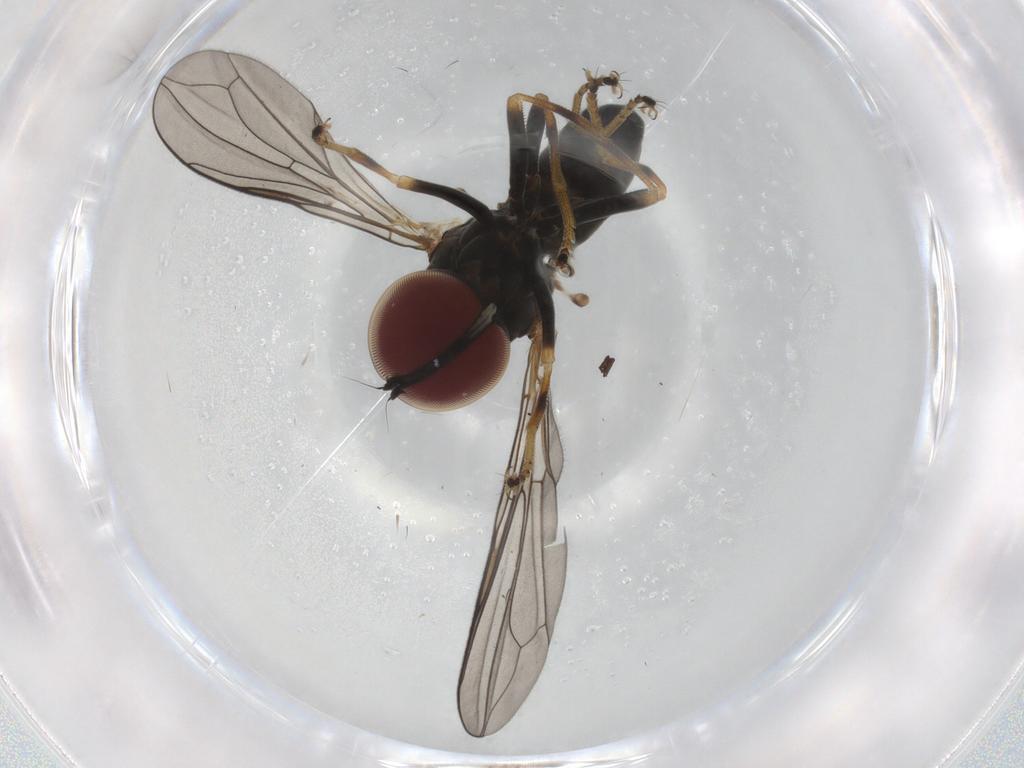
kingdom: Animalia
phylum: Arthropoda
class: Insecta
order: Diptera
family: Pipunculidae
